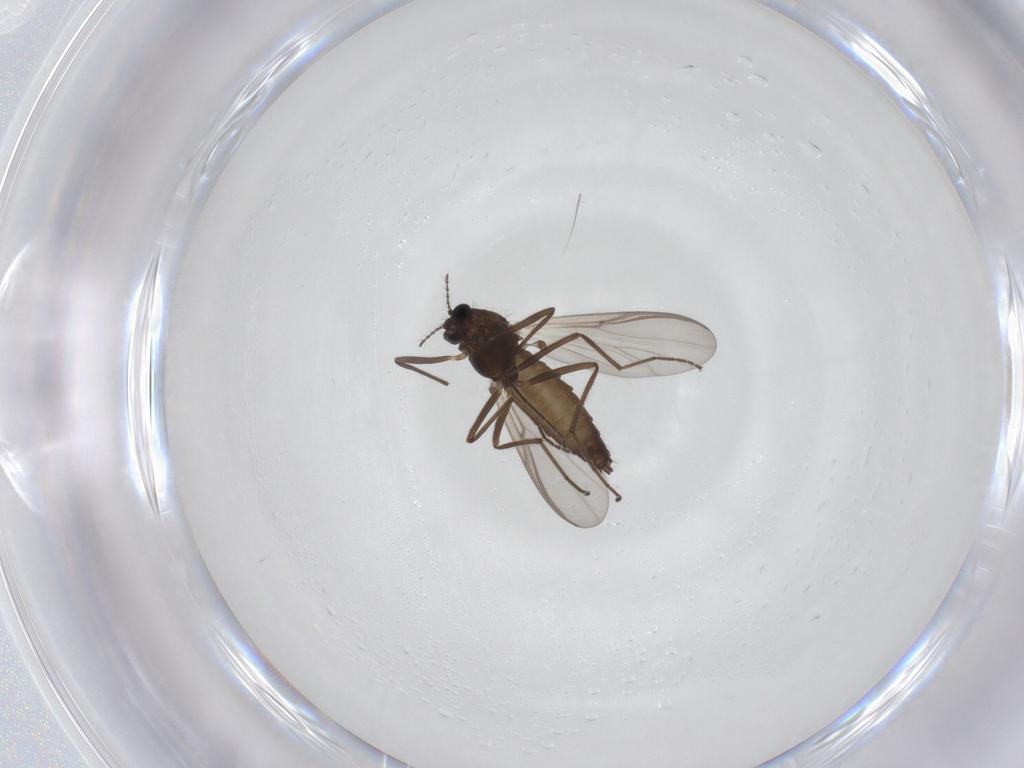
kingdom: Animalia
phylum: Arthropoda
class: Insecta
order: Diptera
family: Chironomidae
